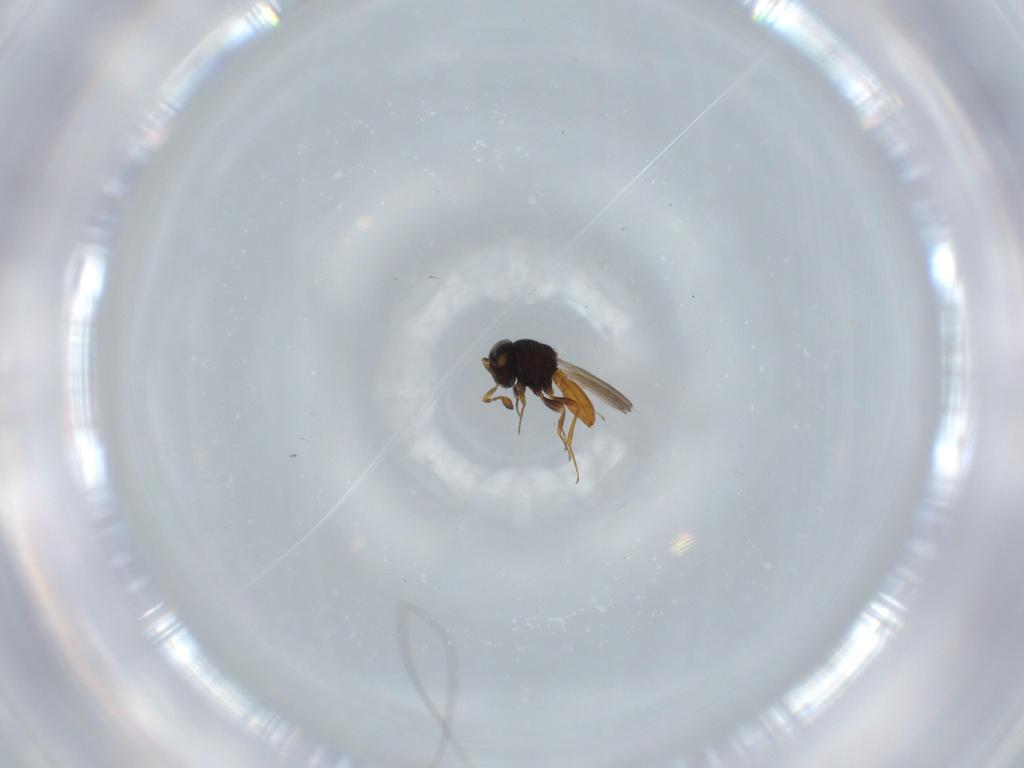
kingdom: Animalia
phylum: Arthropoda
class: Insecta
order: Hymenoptera
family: Scelionidae
